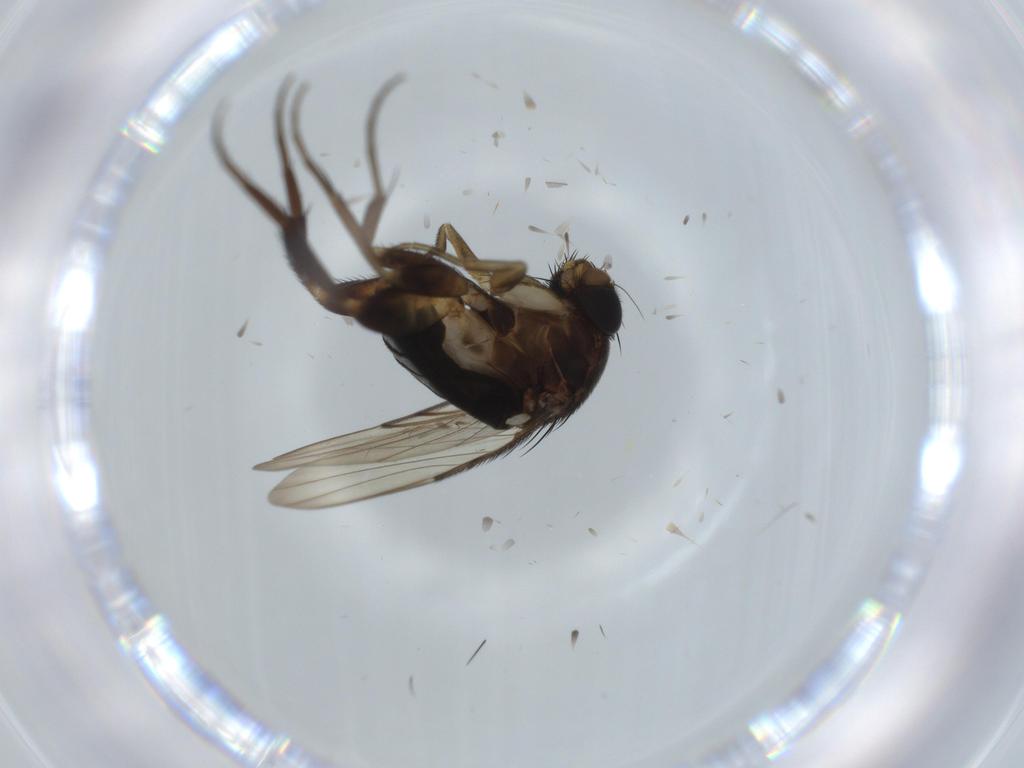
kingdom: Animalia
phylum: Arthropoda
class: Insecta
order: Diptera
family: Phoridae
